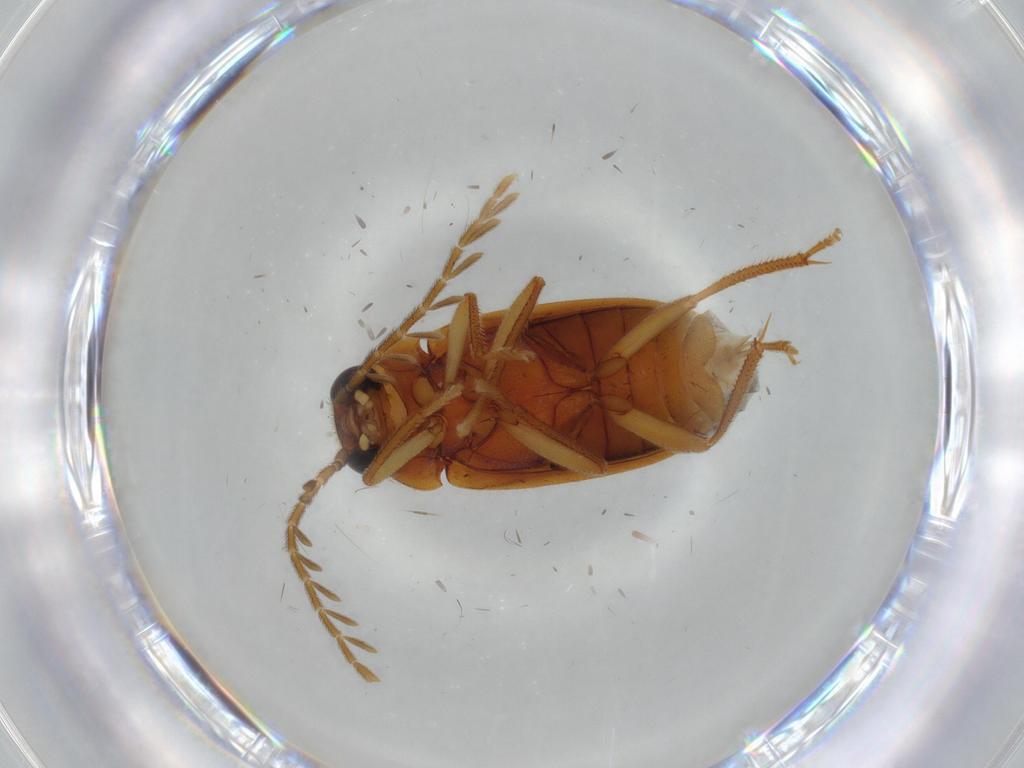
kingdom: Animalia
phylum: Arthropoda
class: Insecta
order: Coleoptera
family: Ptilodactylidae
